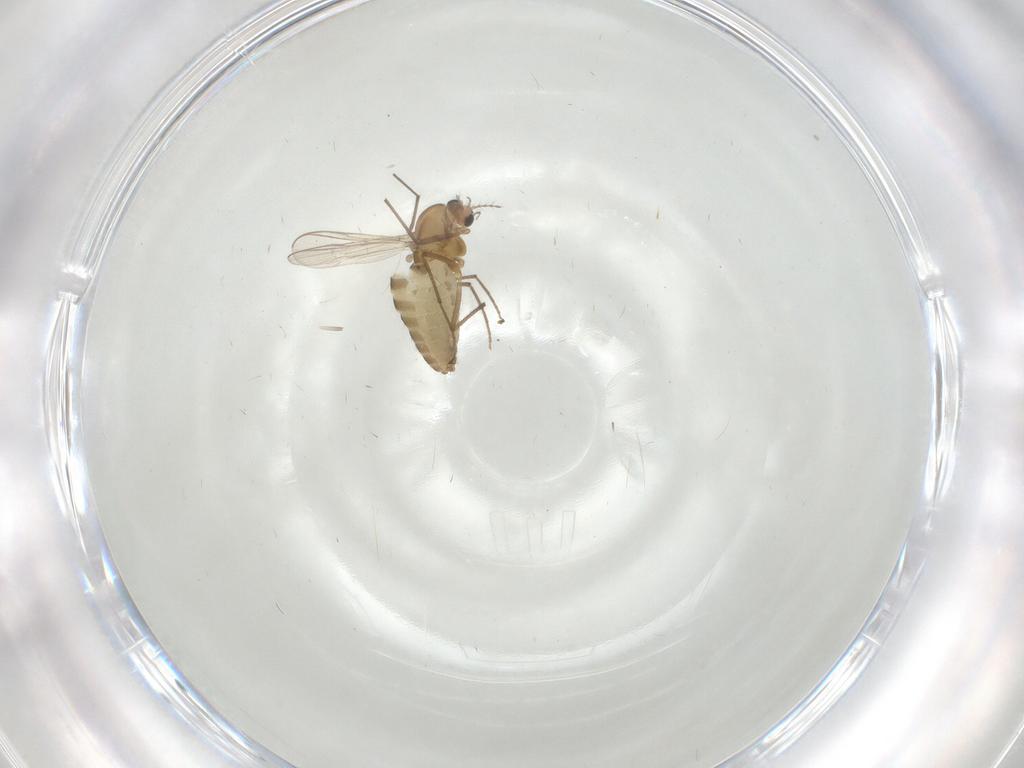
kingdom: Animalia
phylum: Arthropoda
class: Insecta
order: Diptera
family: Chironomidae
